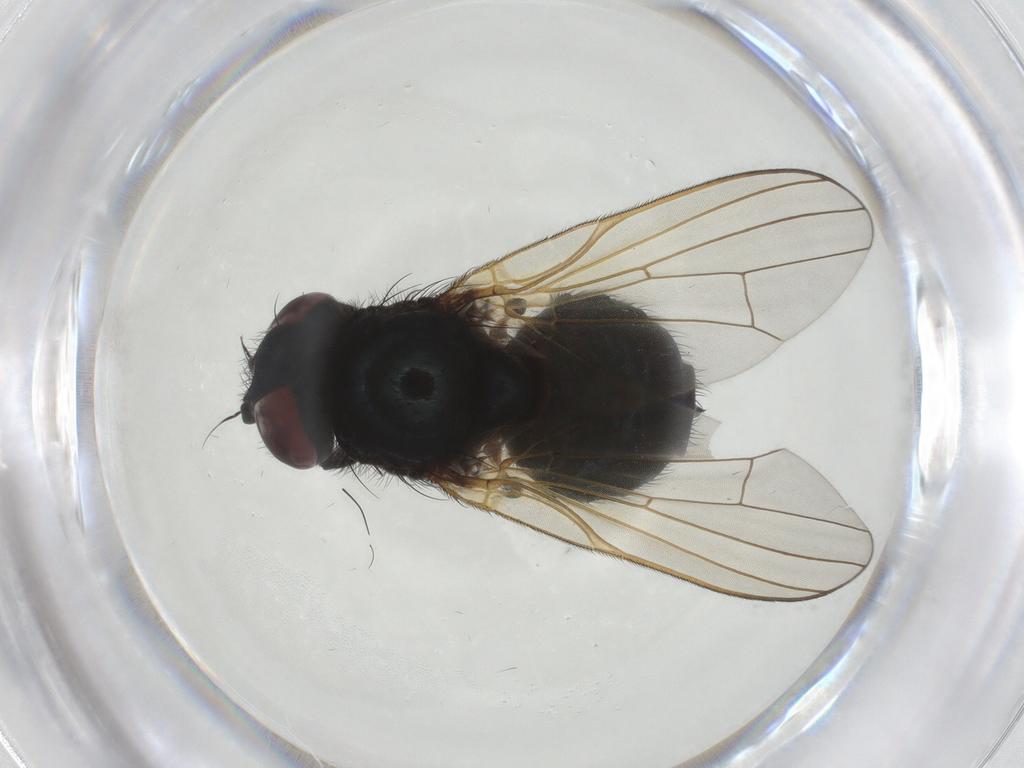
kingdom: Animalia
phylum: Arthropoda
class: Insecta
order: Diptera
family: Lonchaeidae
